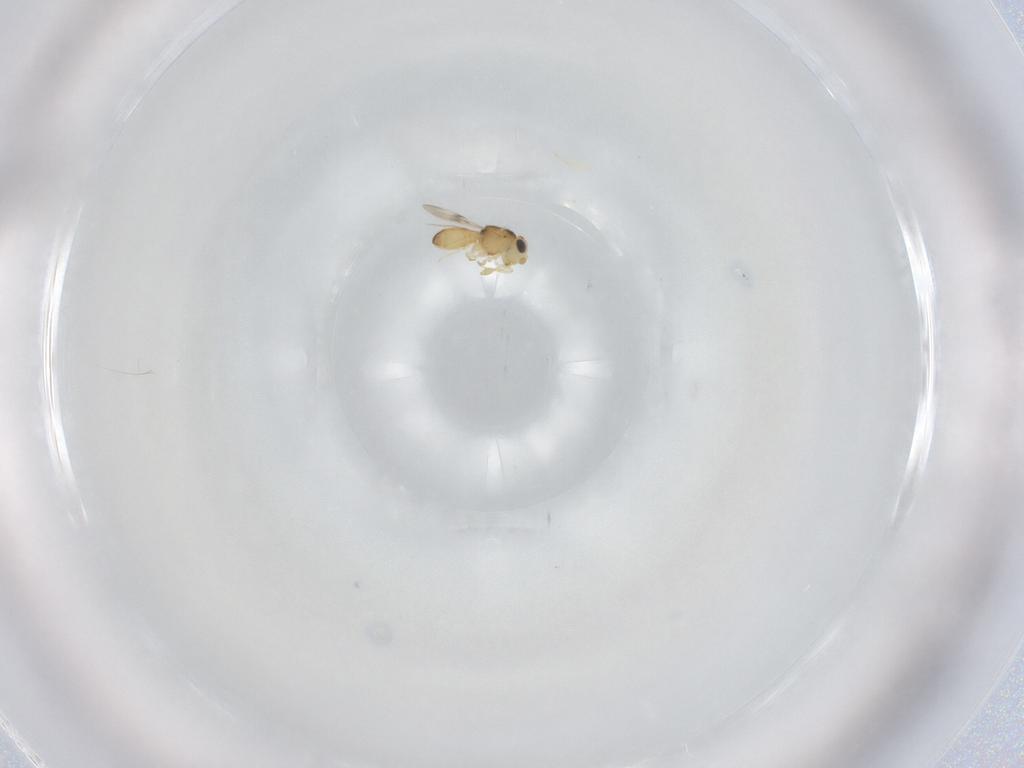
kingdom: Animalia
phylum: Arthropoda
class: Insecta
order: Hymenoptera
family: Scelionidae
